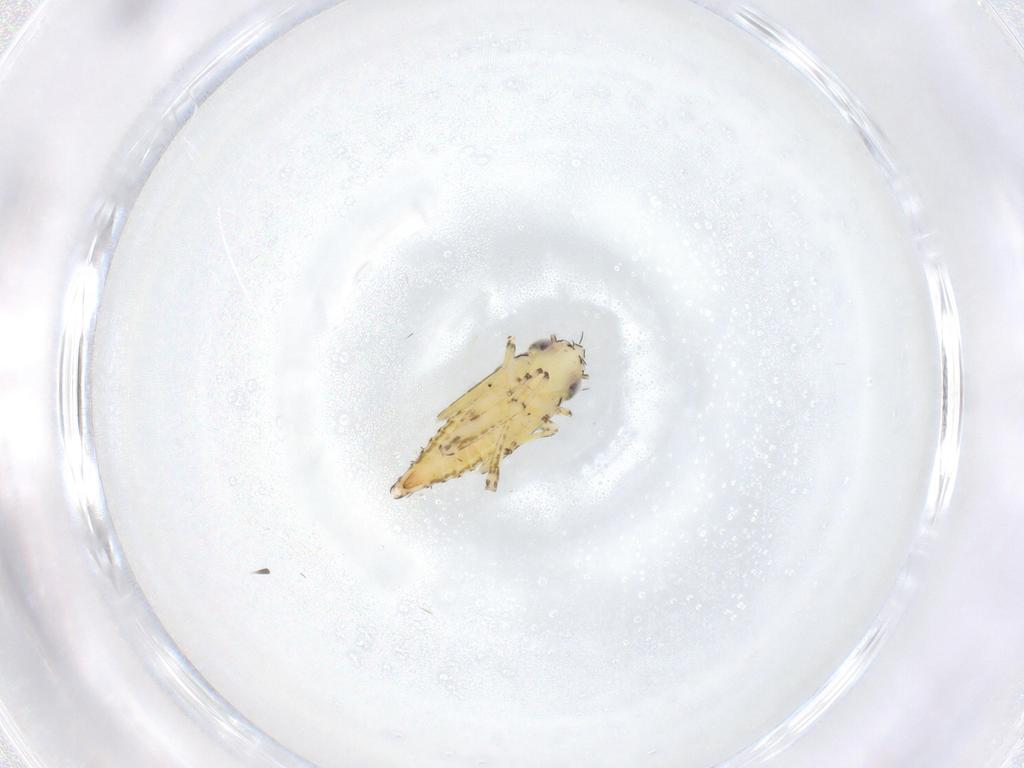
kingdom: Animalia
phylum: Arthropoda
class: Insecta
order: Hemiptera
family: Cicadellidae
